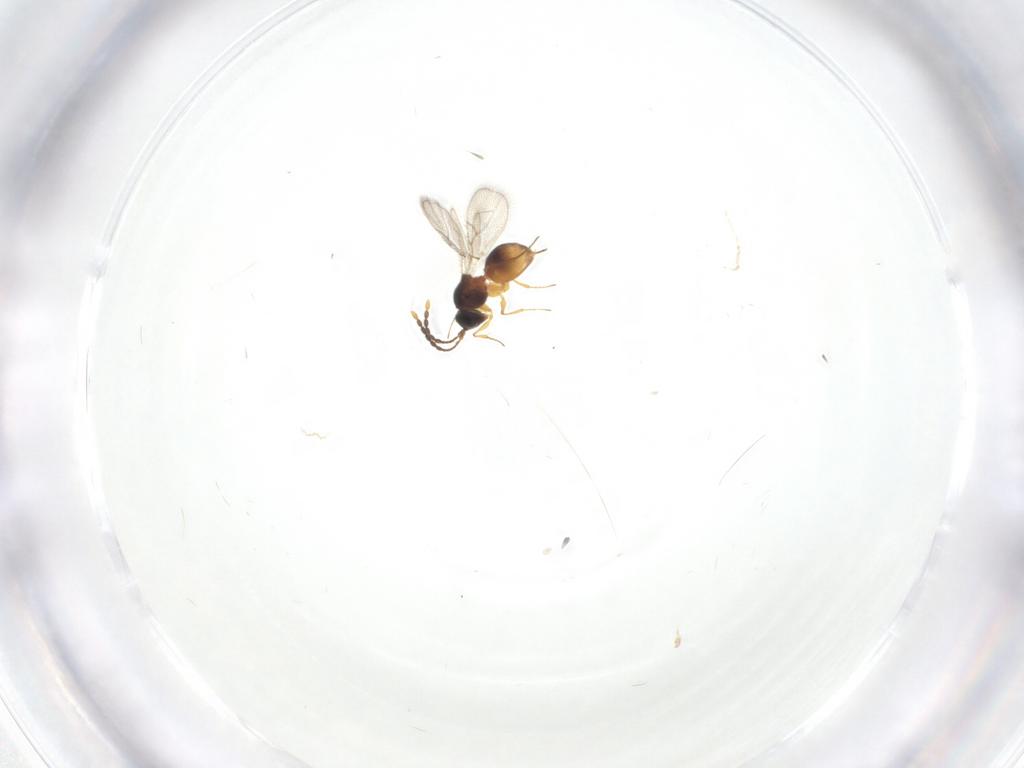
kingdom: Animalia
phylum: Arthropoda
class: Insecta
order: Hymenoptera
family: Figitidae
